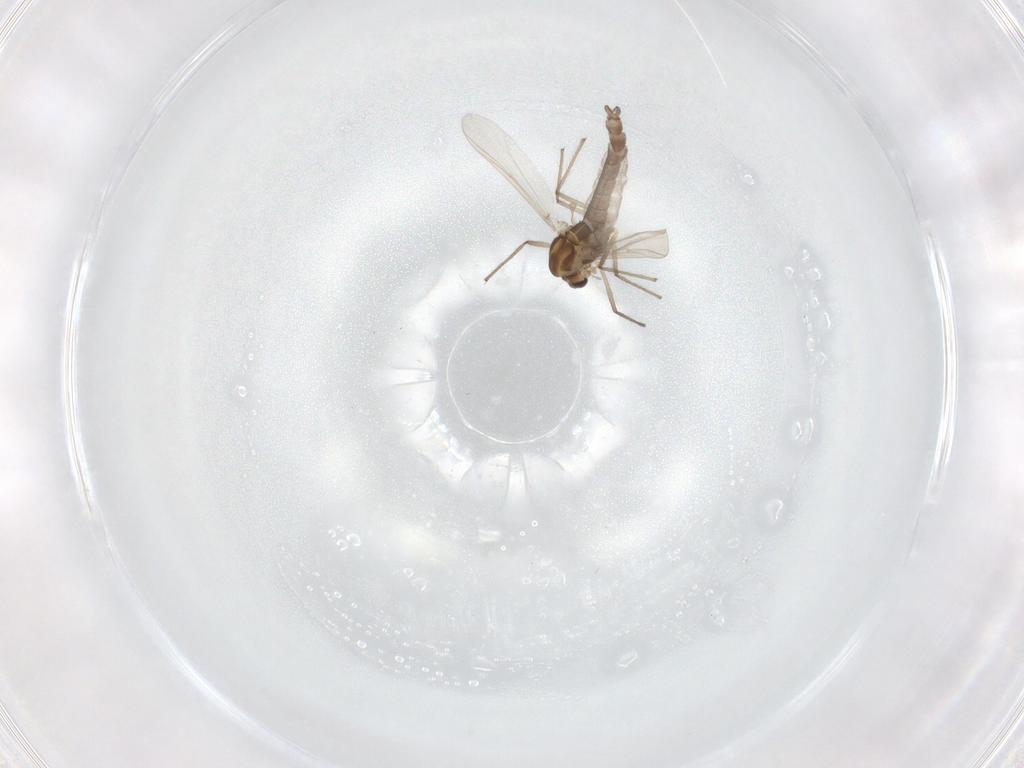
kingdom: Animalia
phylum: Arthropoda
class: Insecta
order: Diptera
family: Chironomidae
